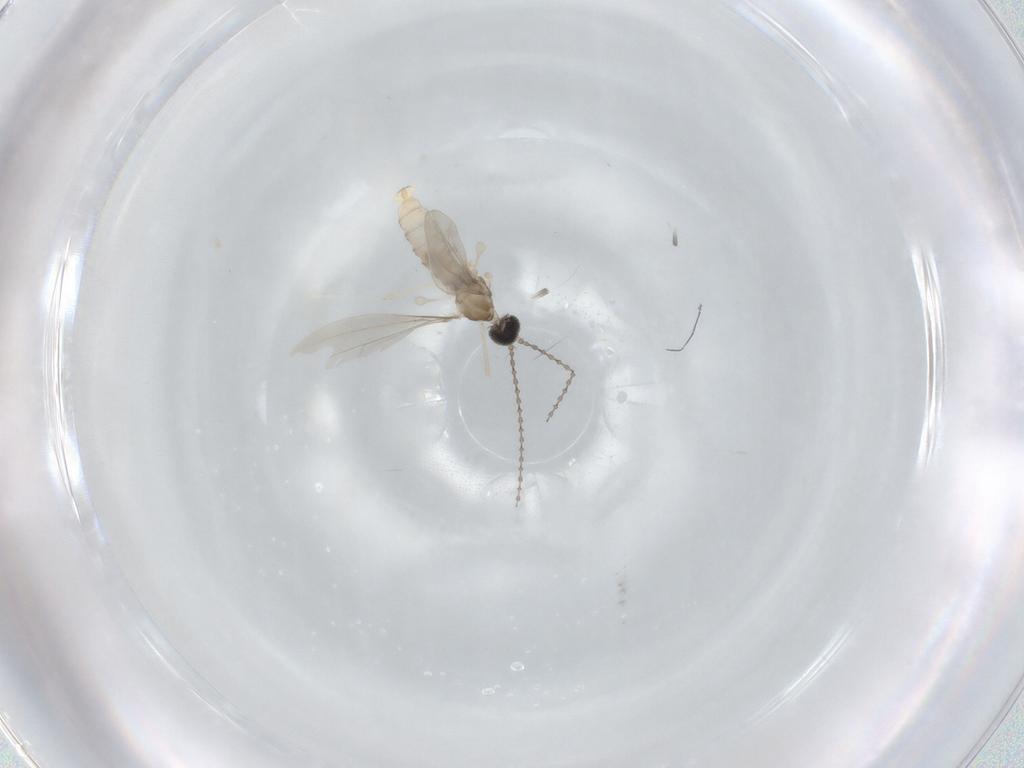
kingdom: Animalia
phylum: Arthropoda
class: Insecta
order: Diptera
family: Cecidomyiidae
